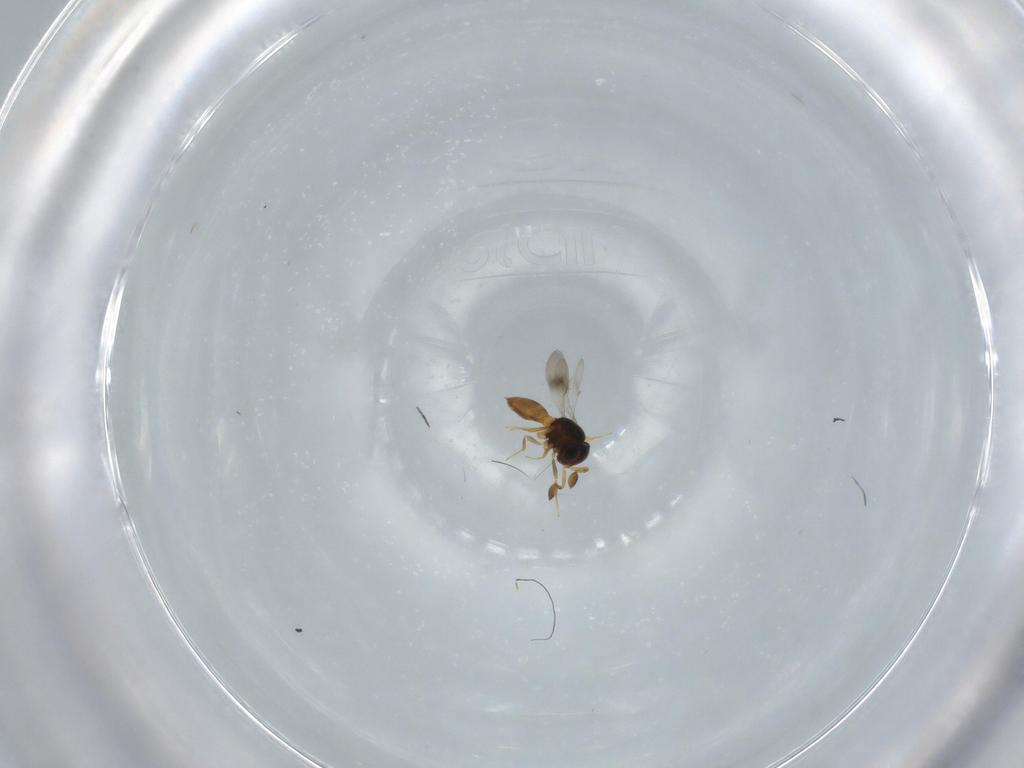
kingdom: Animalia
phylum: Arthropoda
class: Insecta
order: Hymenoptera
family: Scelionidae
